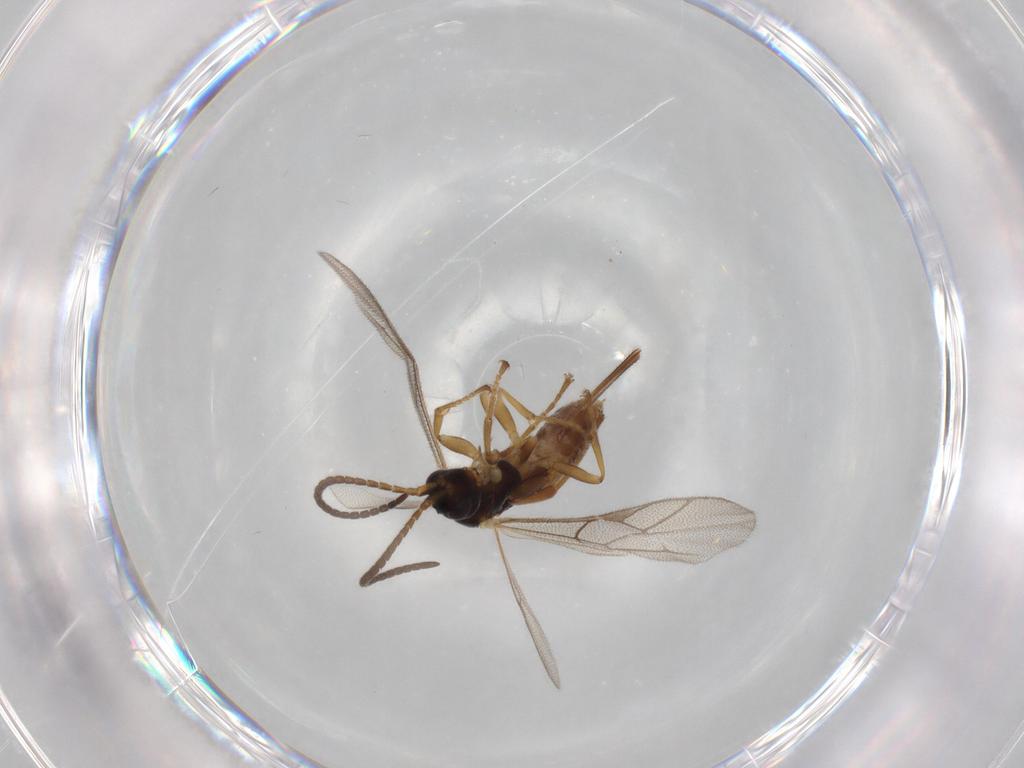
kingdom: Animalia
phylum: Arthropoda
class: Insecta
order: Hymenoptera
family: Ichneumonidae
